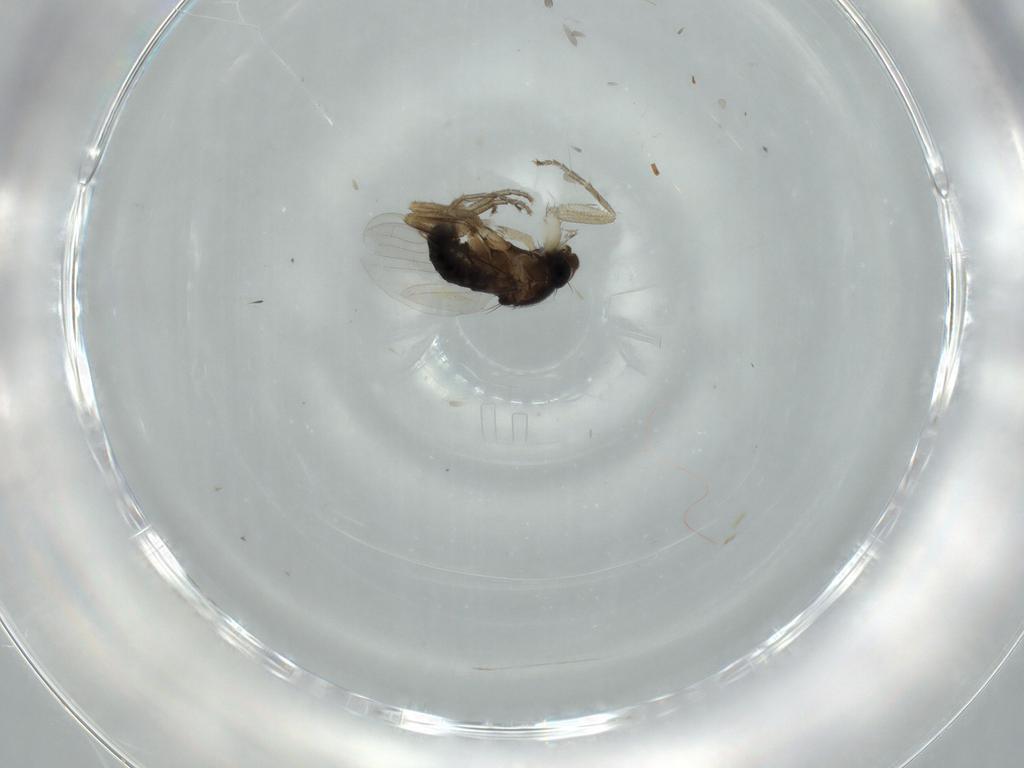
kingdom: Animalia
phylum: Arthropoda
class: Insecta
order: Diptera
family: Phoridae
